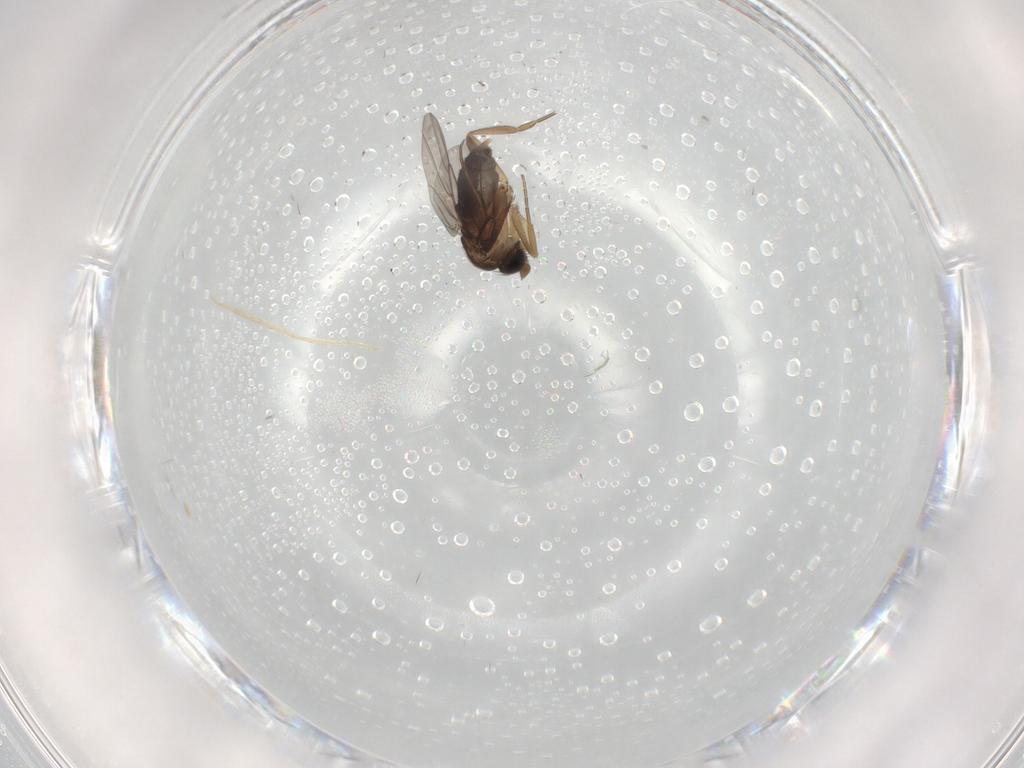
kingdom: Animalia
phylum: Arthropoda
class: Insecta
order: Diptera
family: Phoridae
